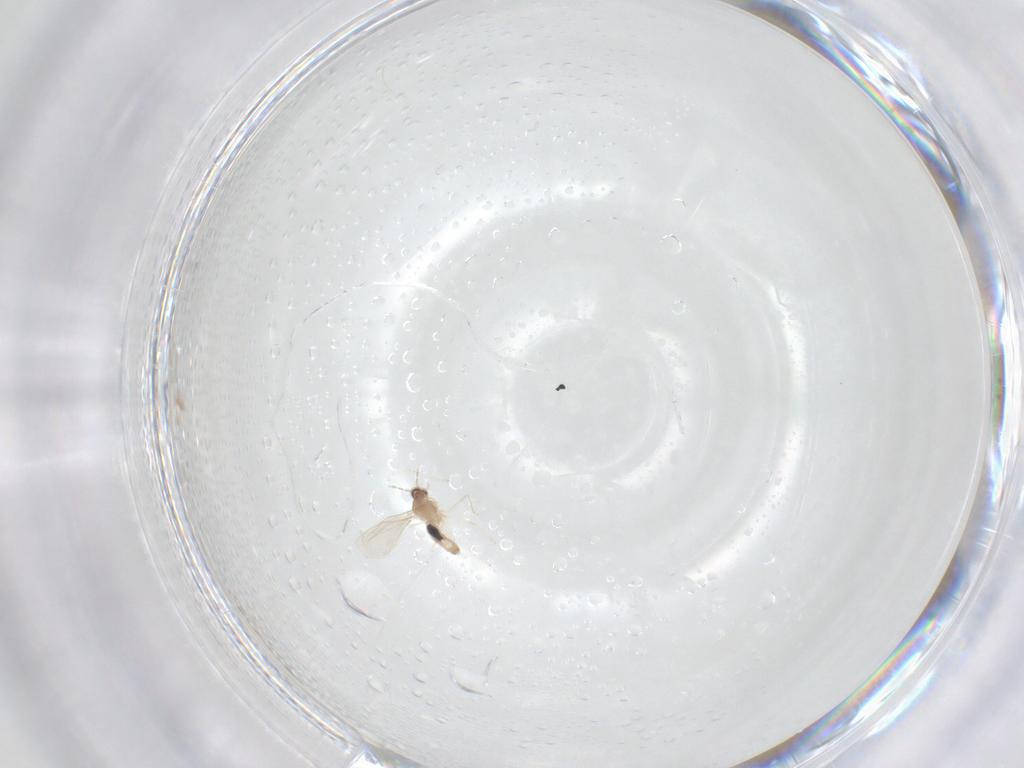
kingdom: Animalia
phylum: Arthropoda
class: Insecta
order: Diptera
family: Cecidomyiidae
